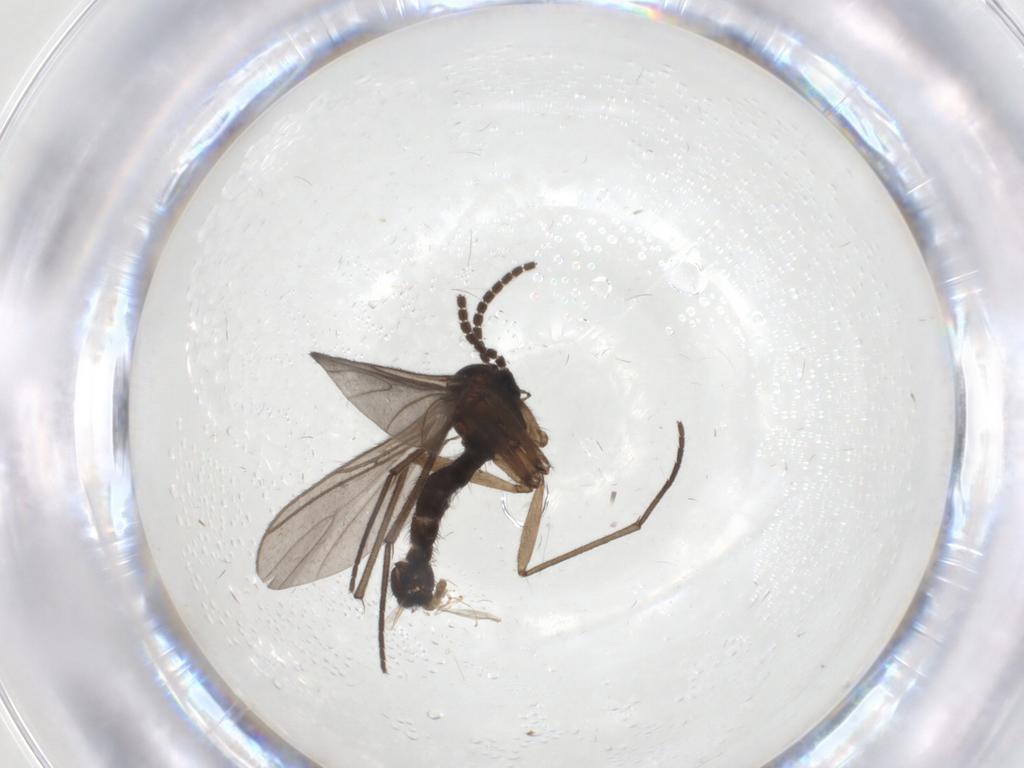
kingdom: Animalia
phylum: Arthropoda
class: Insecta
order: Diptera
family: Sciaridae
